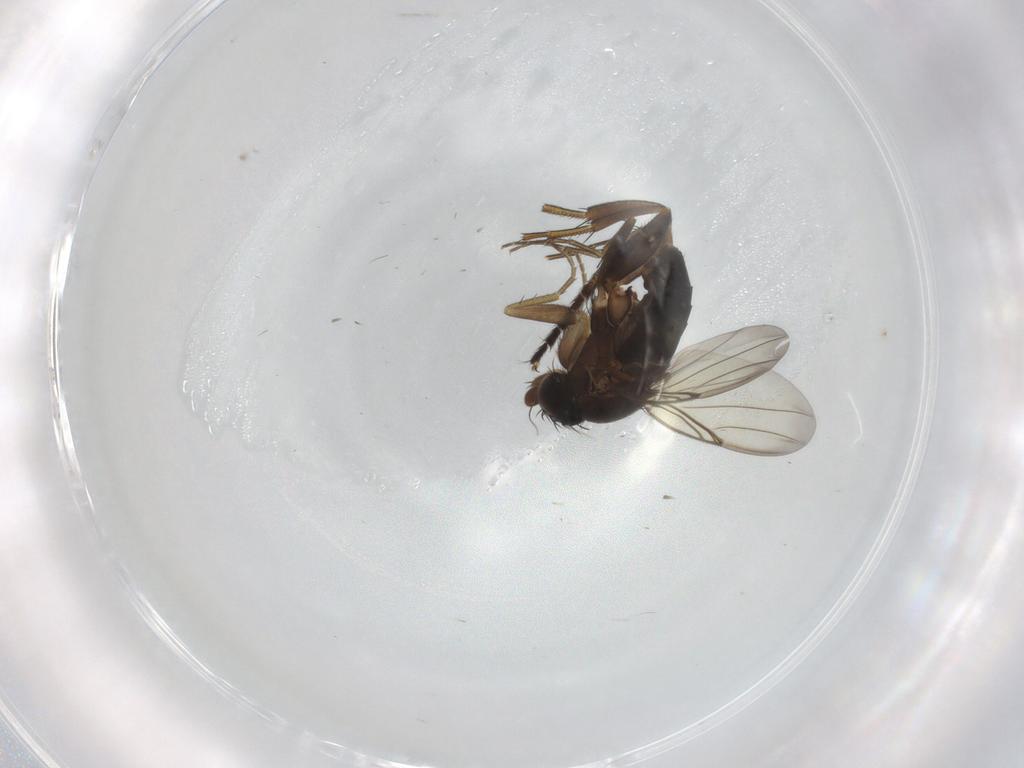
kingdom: Animalia
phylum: Arthropoda
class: Insecta
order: Diptera
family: Phoridae
